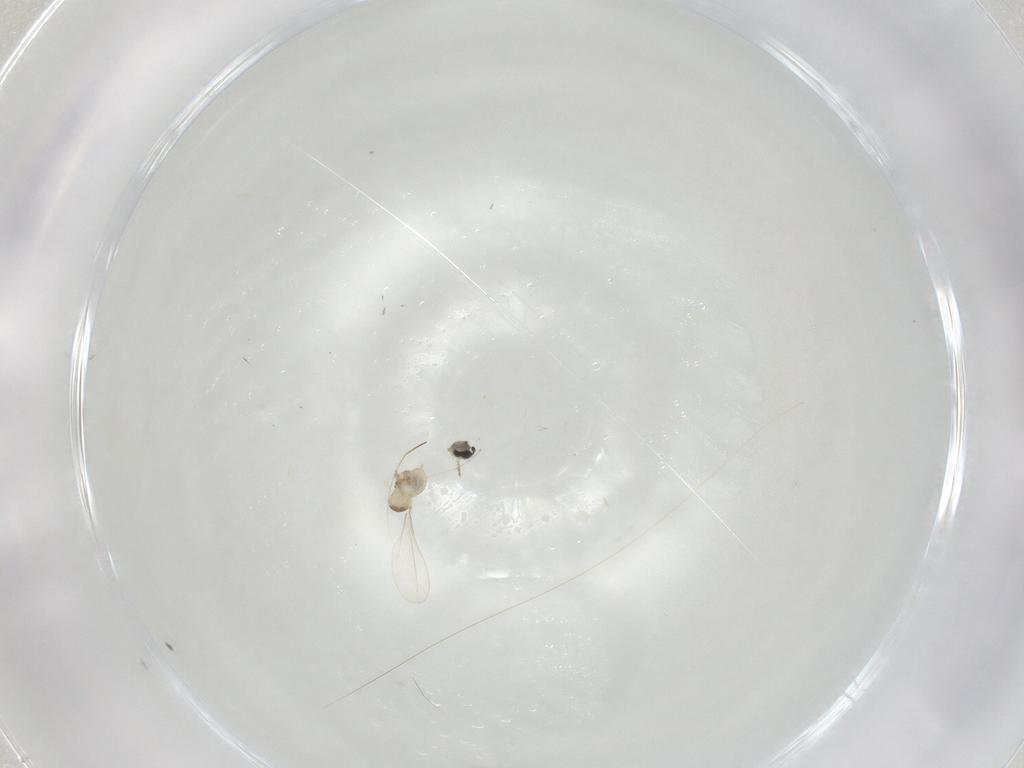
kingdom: Animalia
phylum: Arthropoda
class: Insecta
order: Diptera
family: Cecidomyiidae
